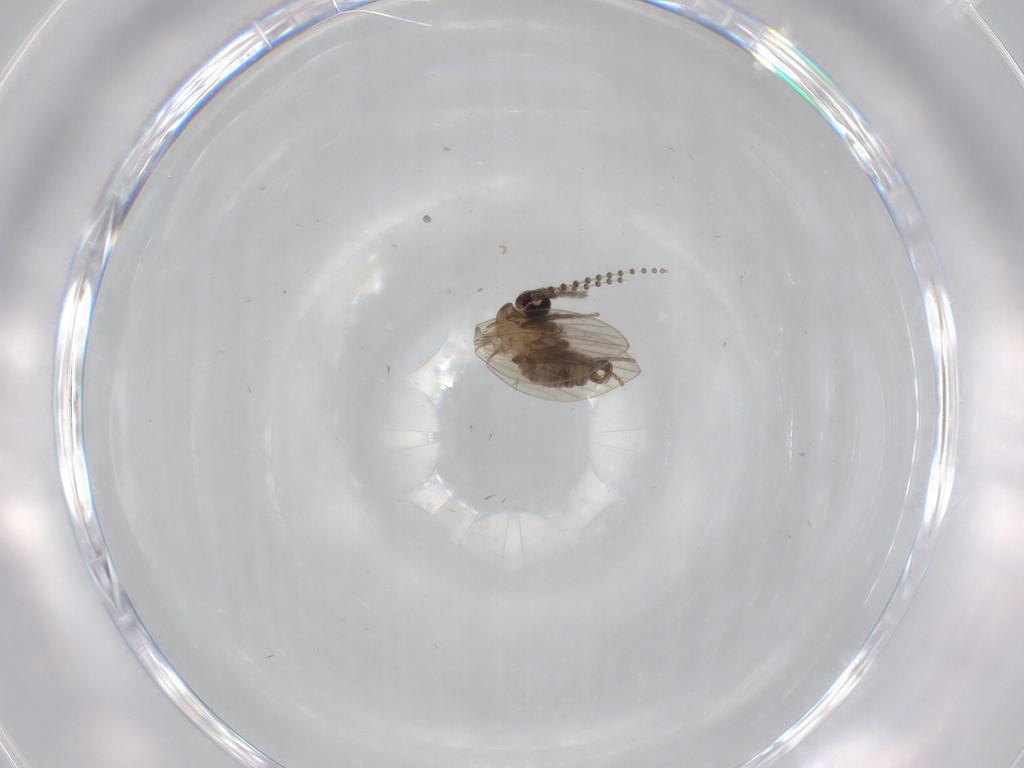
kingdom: Animalia
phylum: Arthropoda
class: Insecta
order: Diptera
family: Psychodidae
